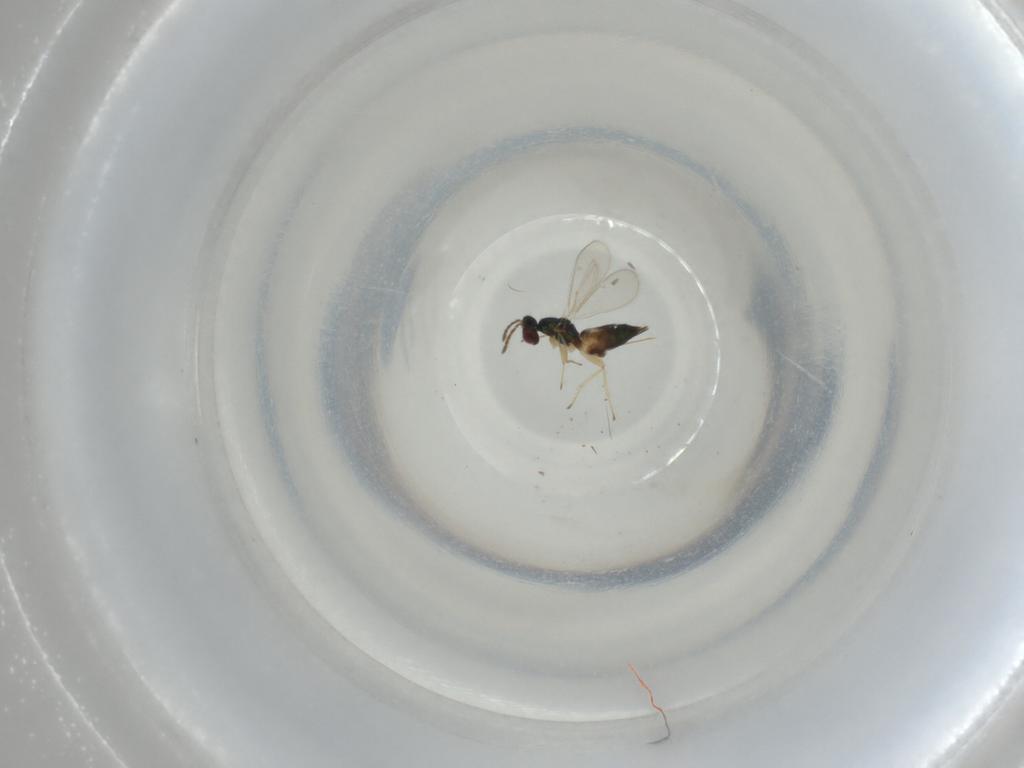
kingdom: Animalia
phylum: Arthropoda
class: Insecta
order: Hymenoptera
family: Eulophidae
